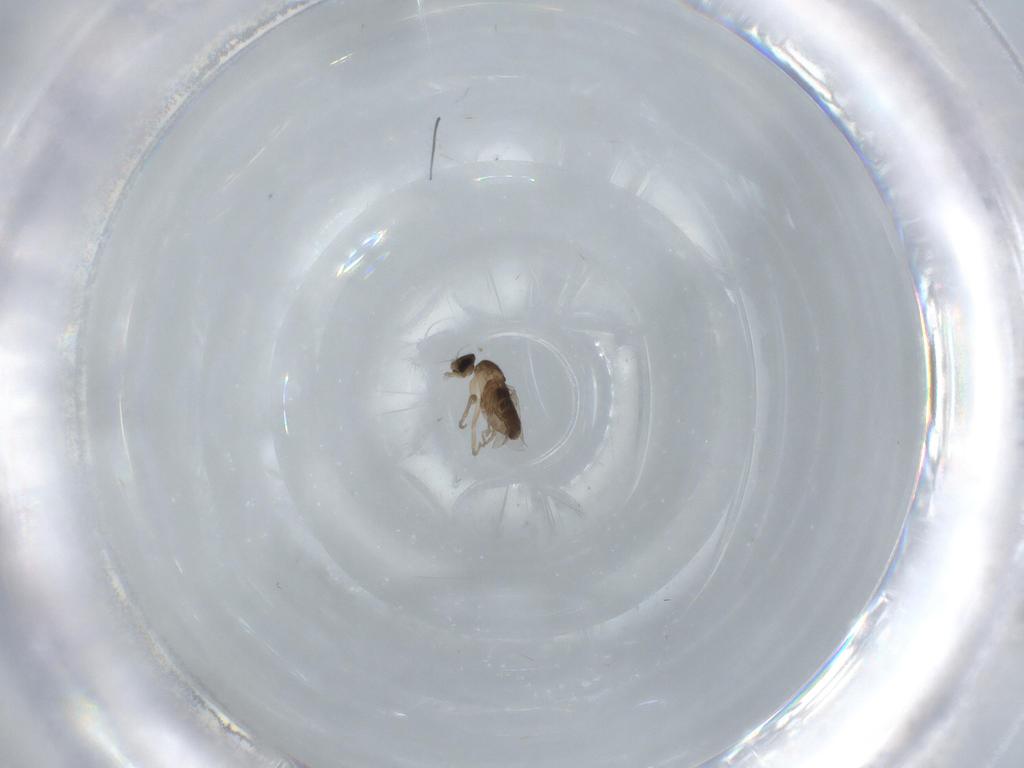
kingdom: Animalia
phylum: Arthropoda
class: Insecta
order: Diptera
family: Phoridae
